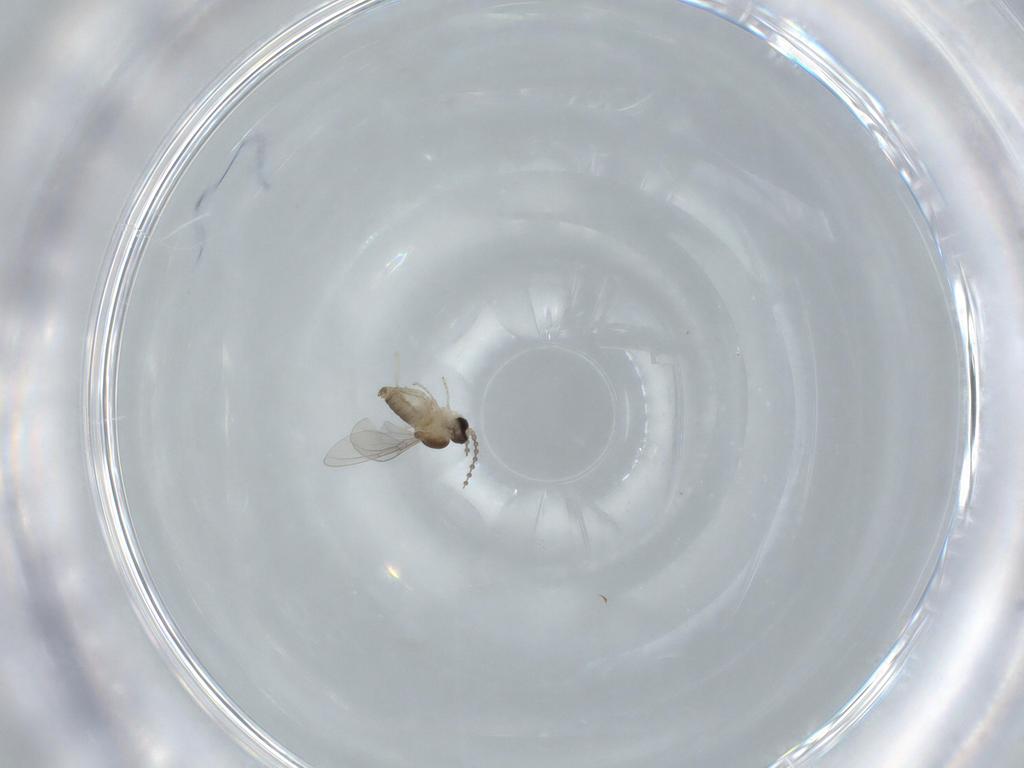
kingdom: Animalia
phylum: Arthropoda
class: Insecta
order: Diptera
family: Cecidomyiidae
